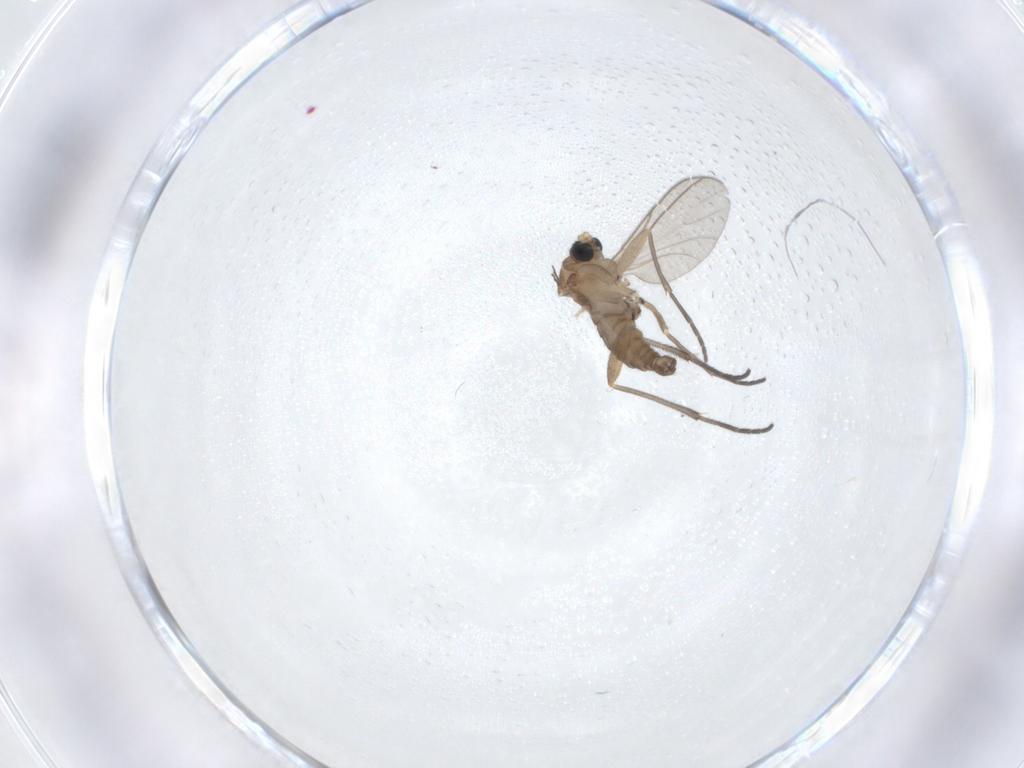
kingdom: Animalia
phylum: Arthropoda
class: Insecta
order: Diptera
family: Sciaridae
